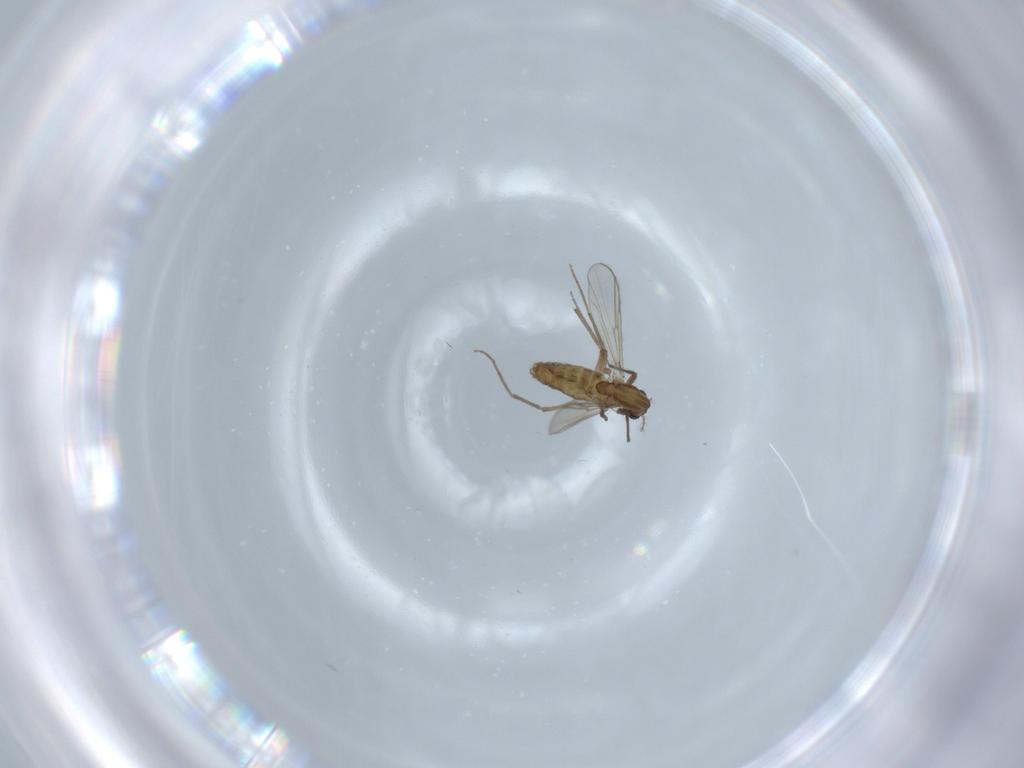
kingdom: Animalia
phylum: Arthropoda
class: Insecta
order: Diptera
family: Chironomidae
